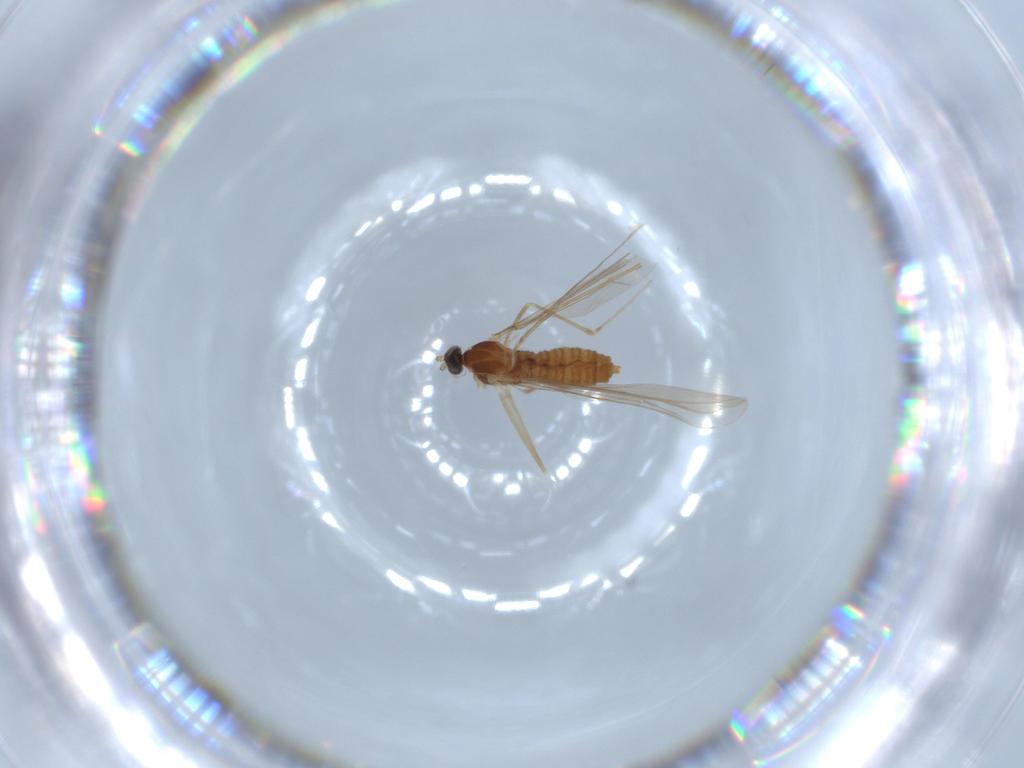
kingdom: Animalia
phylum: Arthropoda
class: Insecta
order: Diptera
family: Cecidomyiidae
